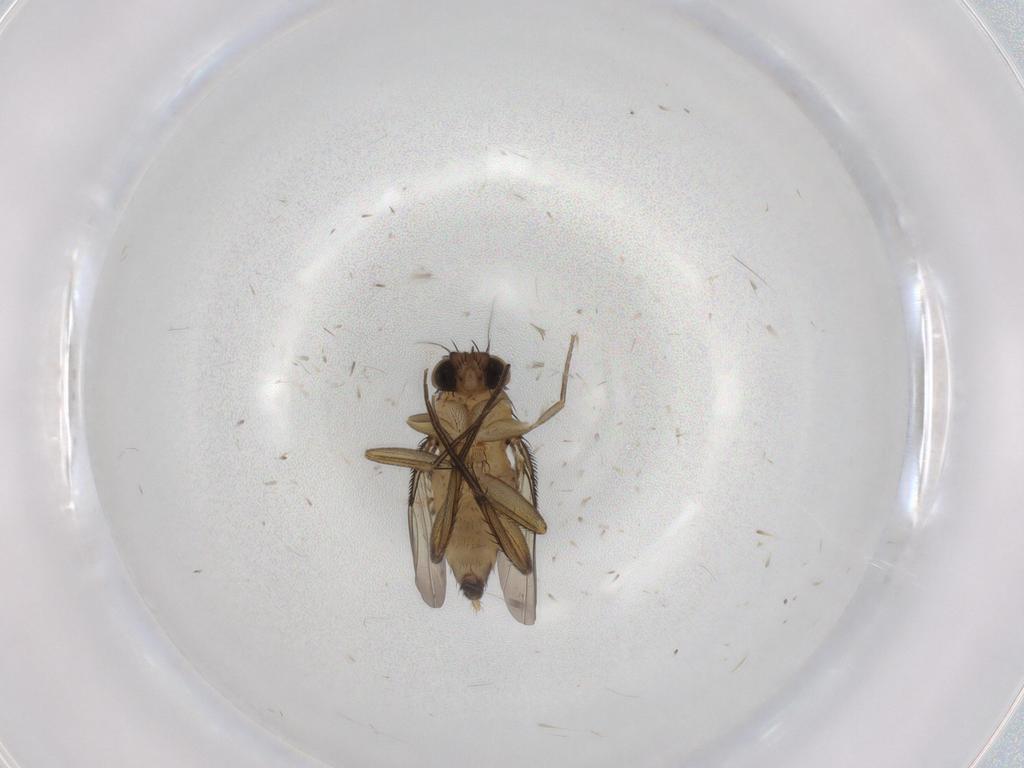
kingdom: Animalia
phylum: Arthropoda
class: Insecta
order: Diptera
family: Phoridae
